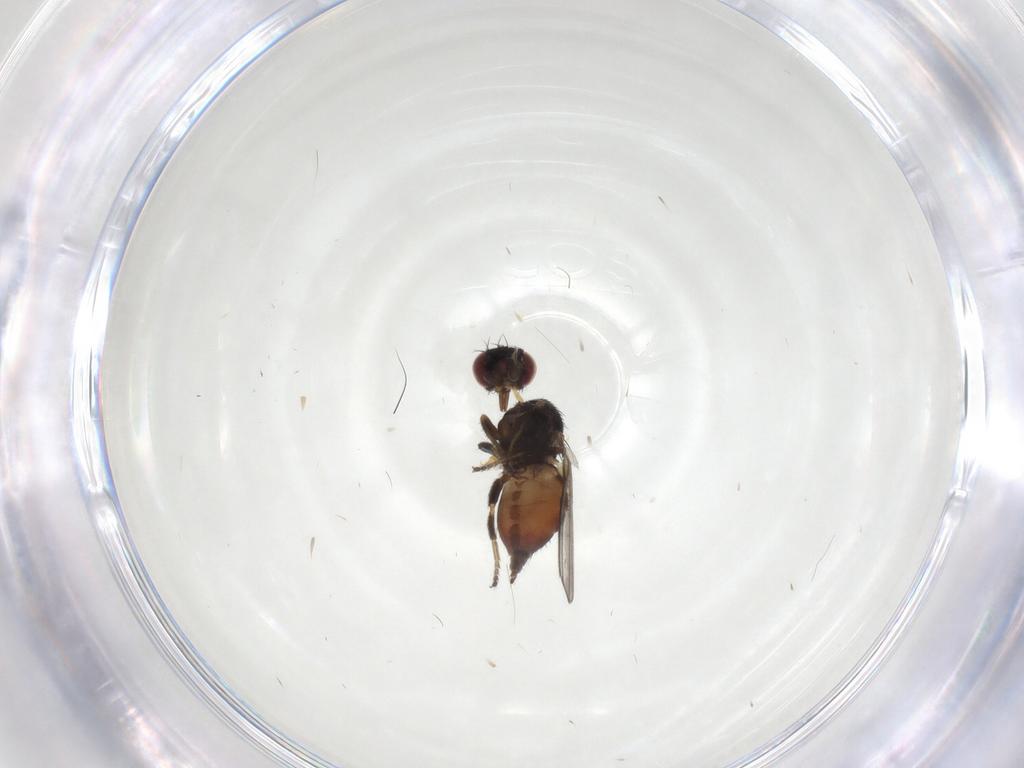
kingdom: Animalia
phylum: Arthropoda
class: Insecta
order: Diptera
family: Milichiidae
